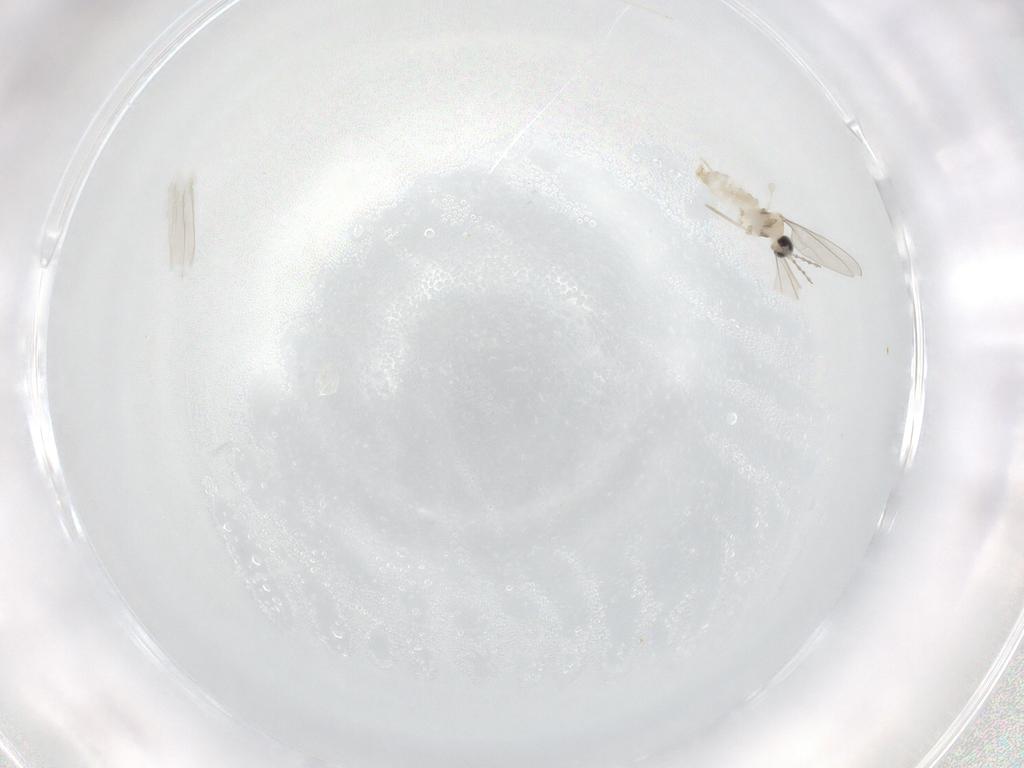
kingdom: Animalia
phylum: Arthropoda
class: Insecta
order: Diptera
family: Cecidomyiidae
